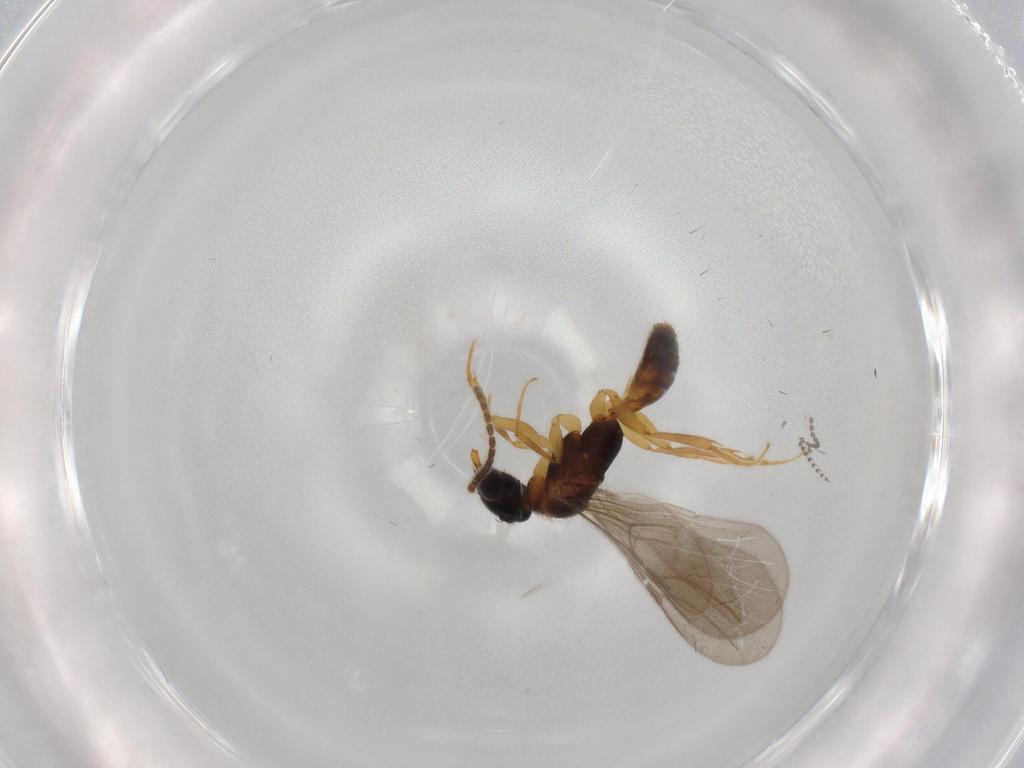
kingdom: Animalia
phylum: Arthropoda
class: Insecta
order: Hymenoptera
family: Bethylidae
